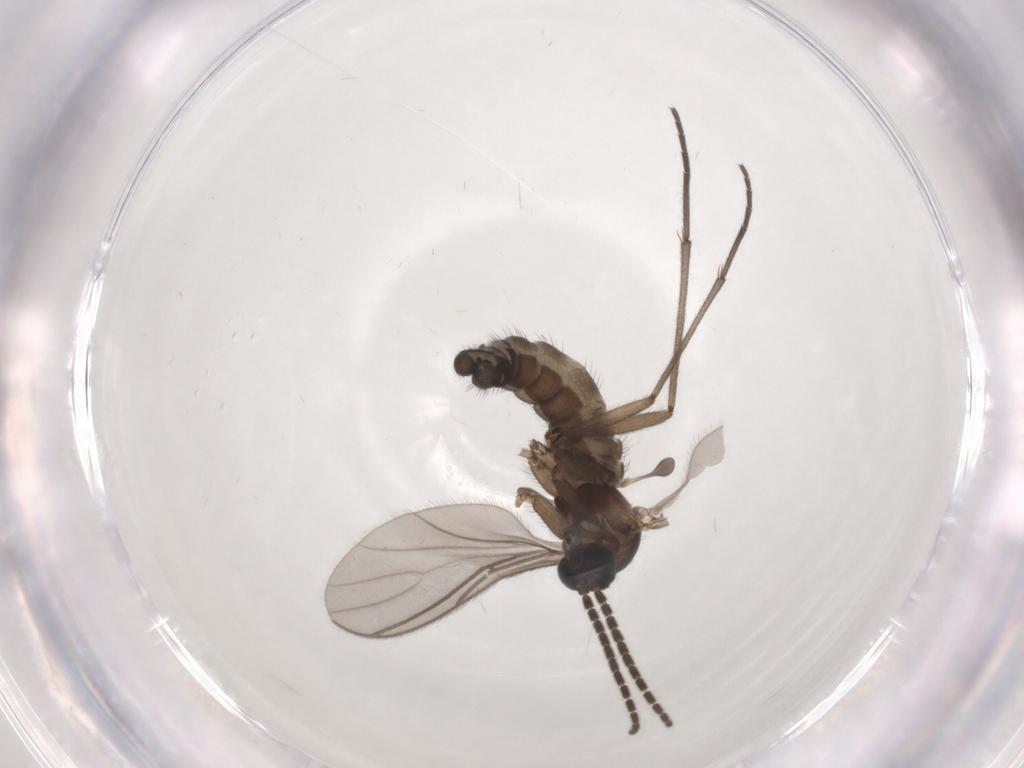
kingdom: Animalia
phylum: Arthropoda
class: Insecta
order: Diptera
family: Sciaridae
